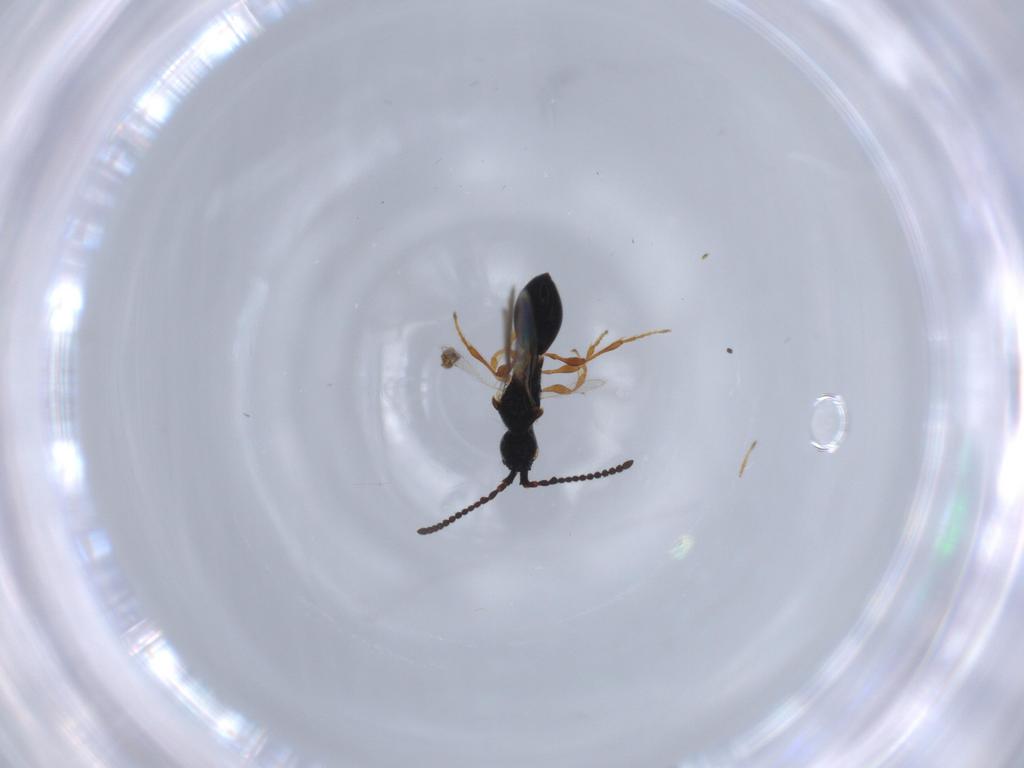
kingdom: Animalia
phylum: Arthropoda
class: Insecta
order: Hymenoptera
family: Diapriidae
